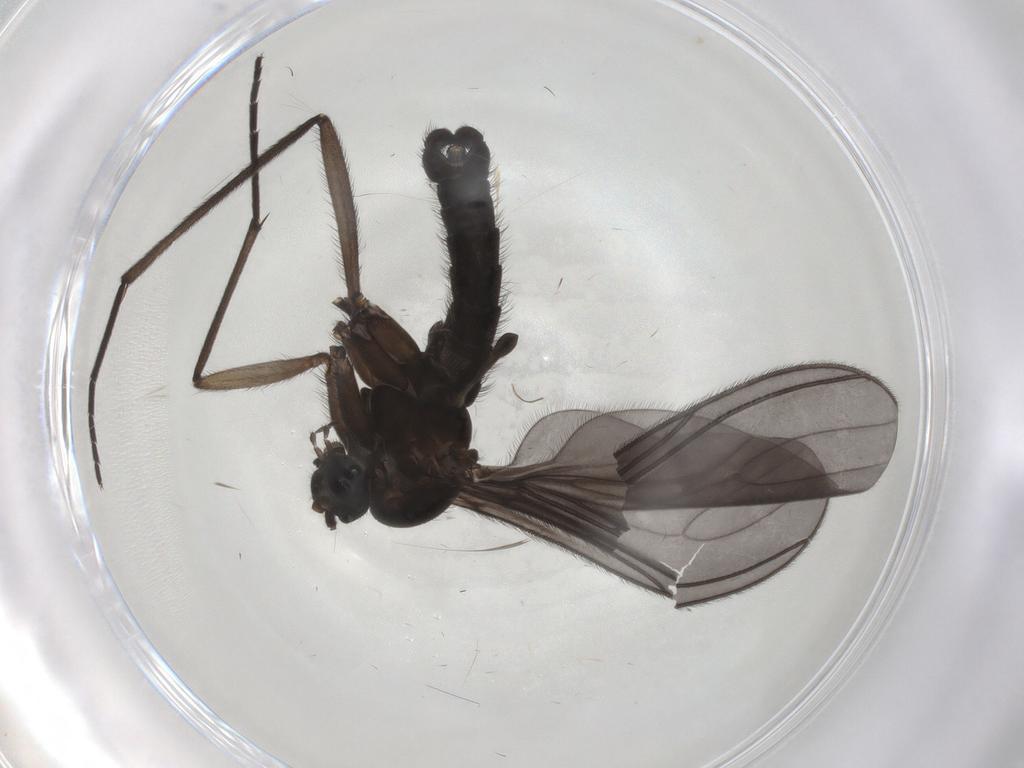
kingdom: Animalia
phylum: Arthropoda
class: Insecta
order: Diptera
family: Sciaridae
